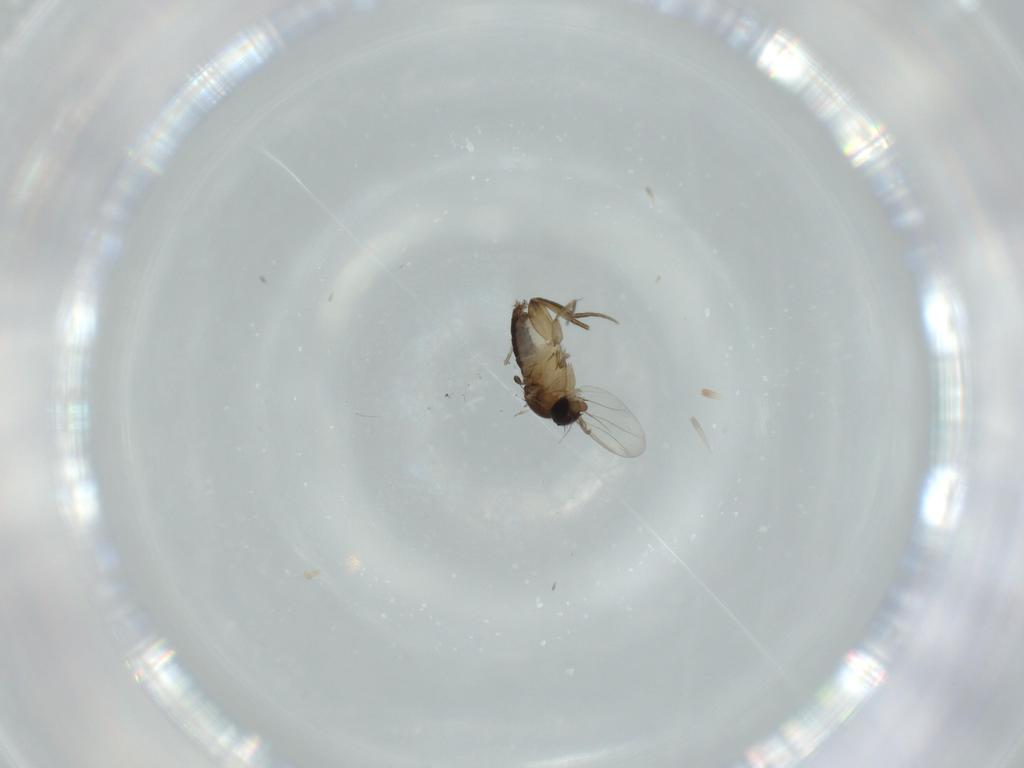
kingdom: Animalia
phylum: Arthropoda
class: Insecta
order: Diptera
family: Phoridae
